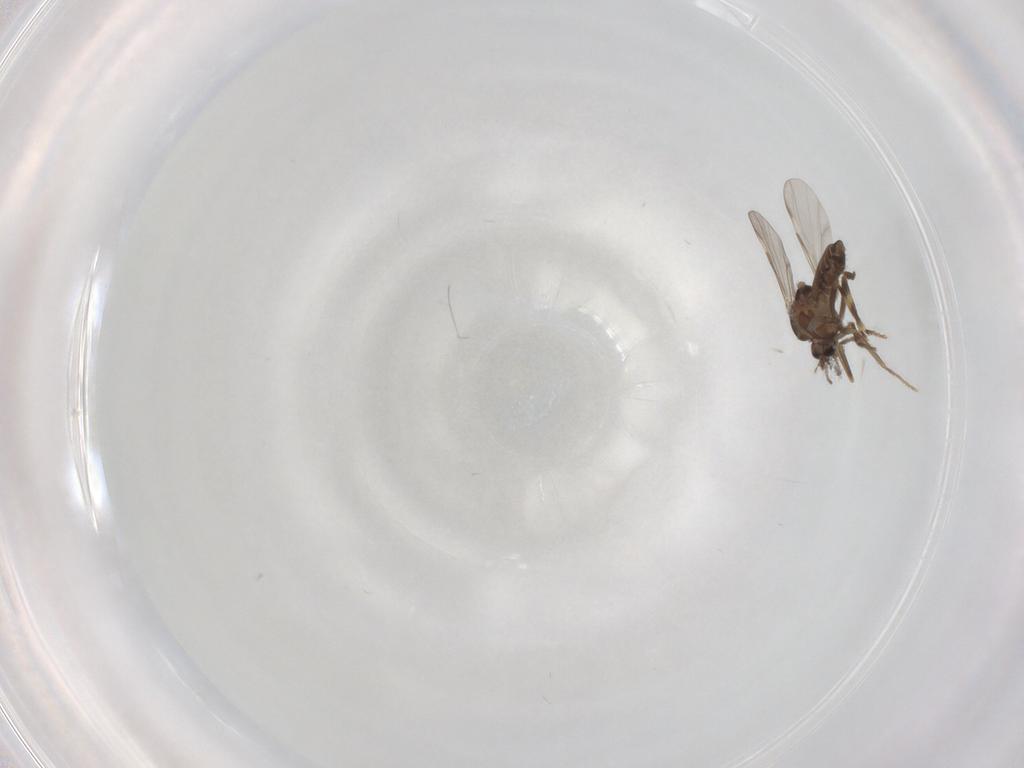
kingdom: Animalia
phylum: Arthropoda
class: Insecta
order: Diptera
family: Ceratopogonidae
